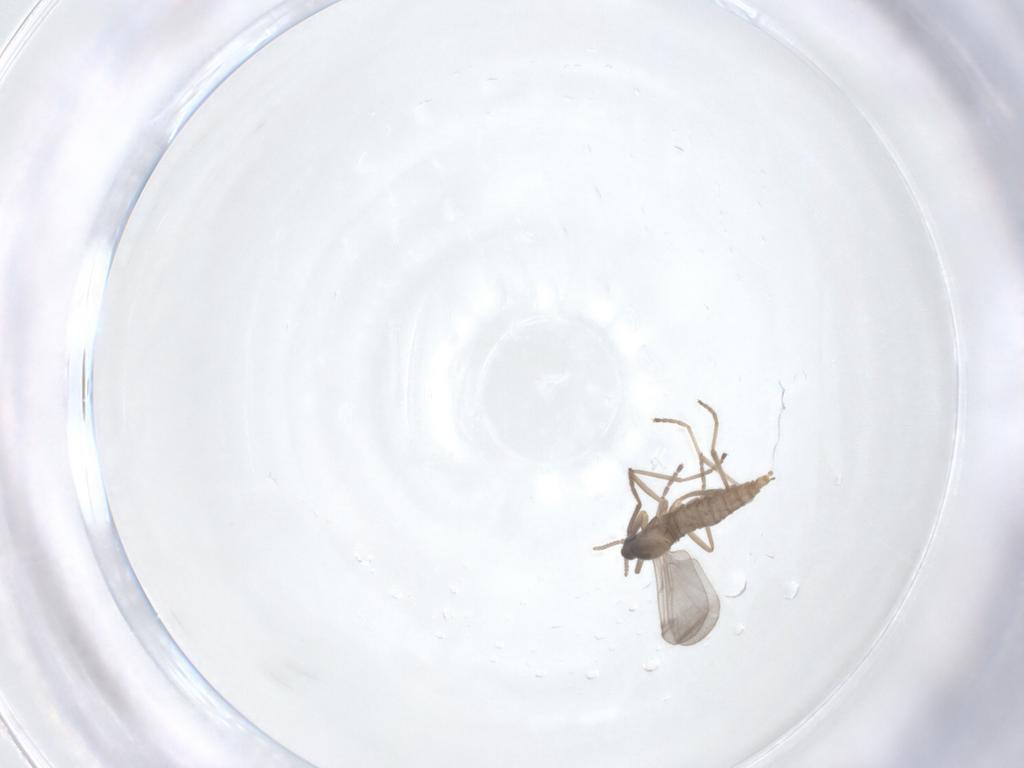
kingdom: Animalia
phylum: Arthropoda
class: Insecta
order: Diptera
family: Cecidomyiidae
